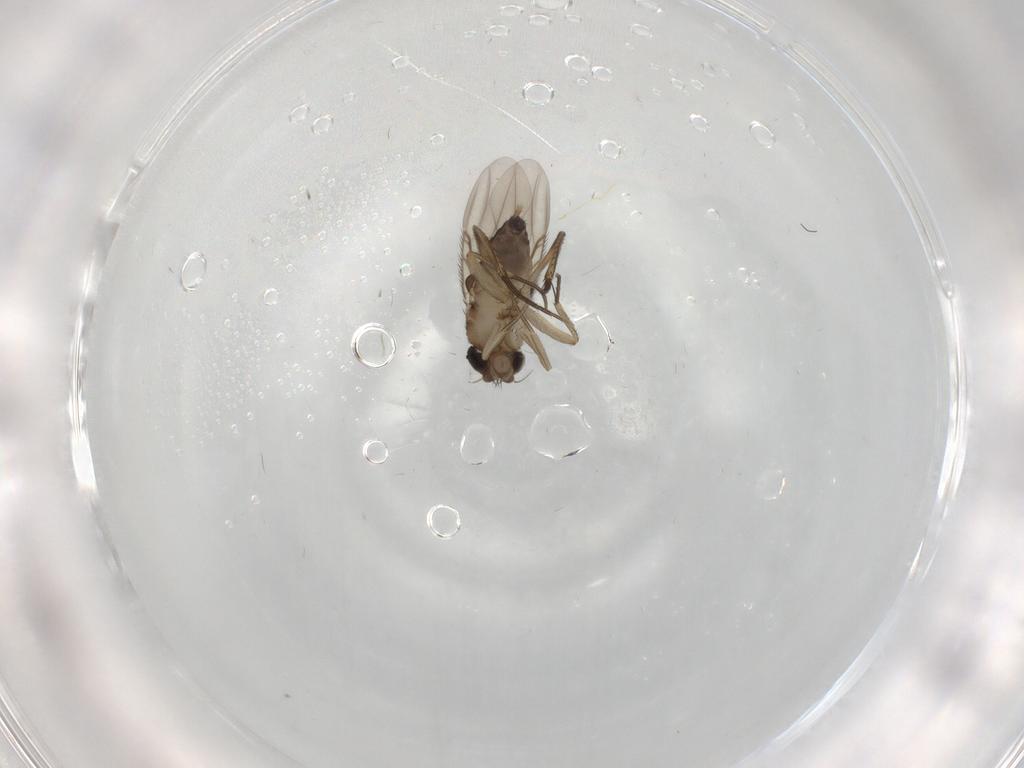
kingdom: Animalia
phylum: Arthropoda
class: Insecta
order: Diptera
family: Phoridae
